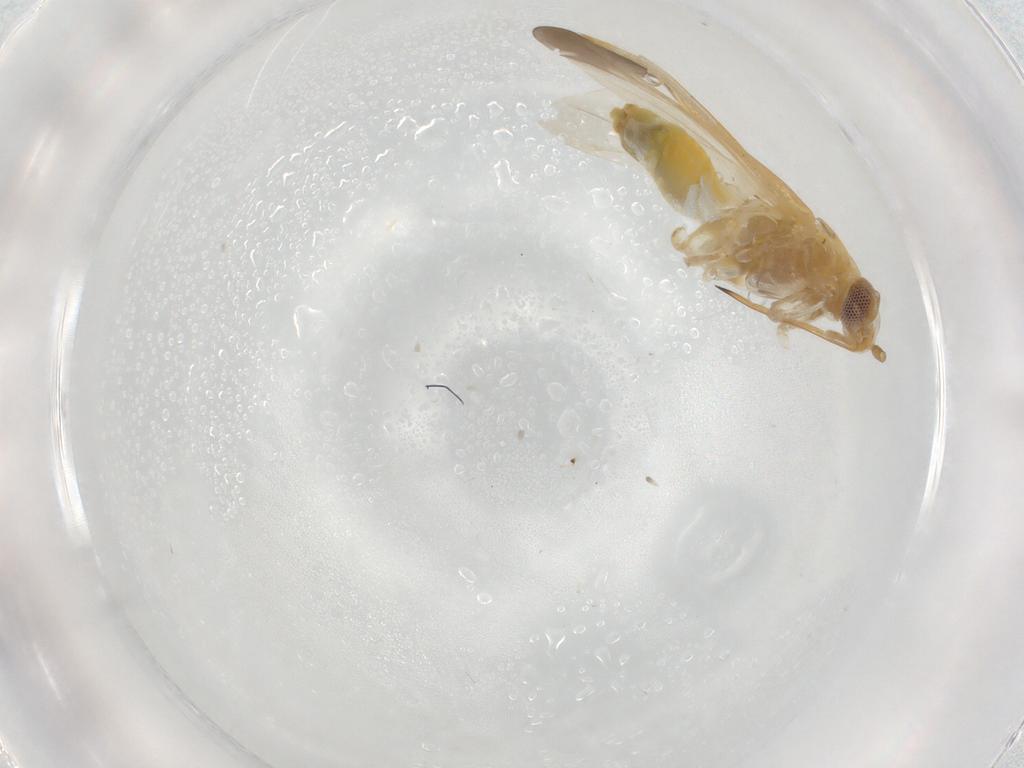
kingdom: Animalia
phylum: Arthropoda
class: Insecta
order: Hemiptera
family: Miridae
